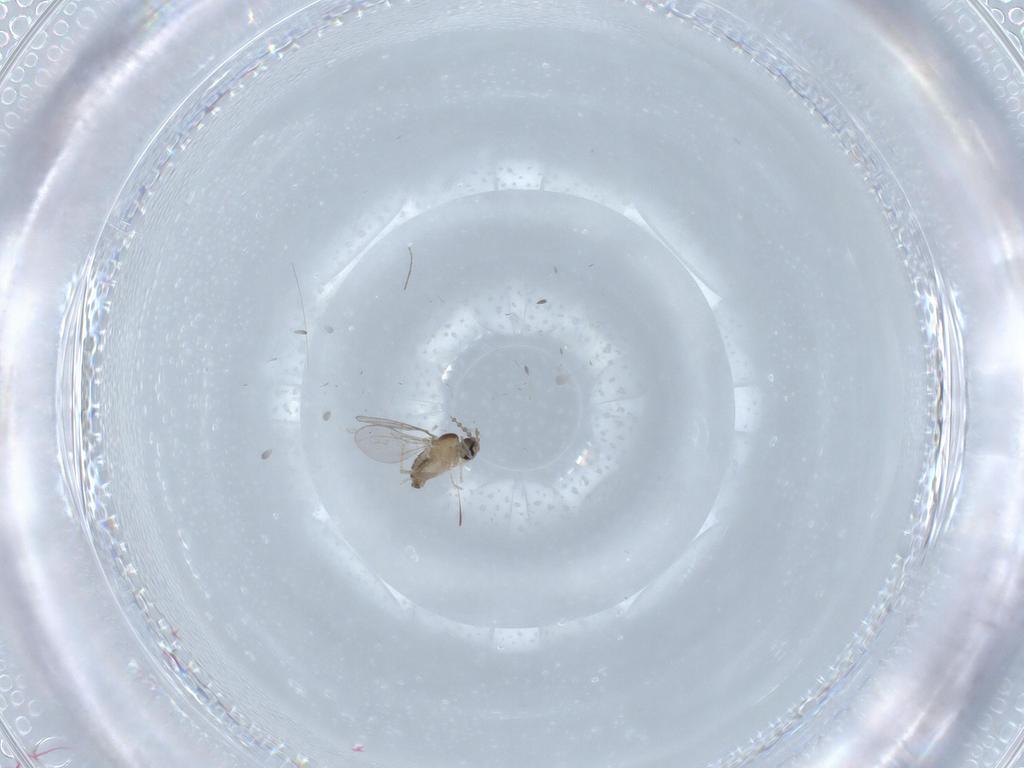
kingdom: Animalia
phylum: Arthropoda
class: Insecta
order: Diptera
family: Cecidomyiidae
